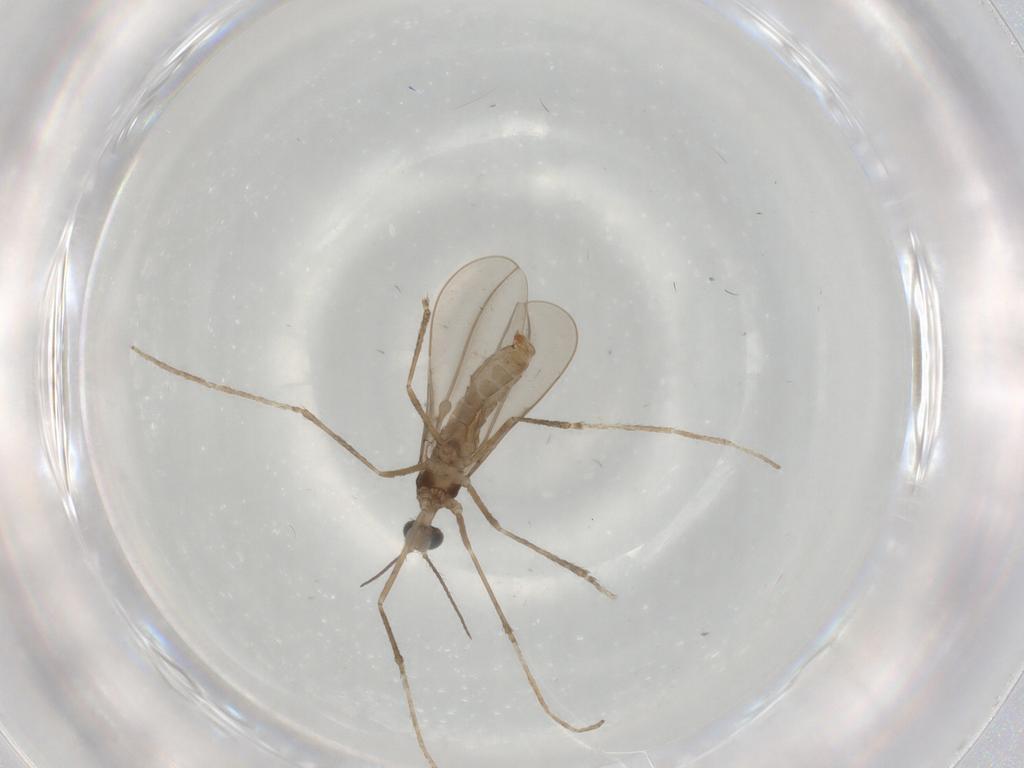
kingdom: Animalia
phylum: Arthropoda
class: Insecta
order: Diptera
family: Cecidomyiidae
